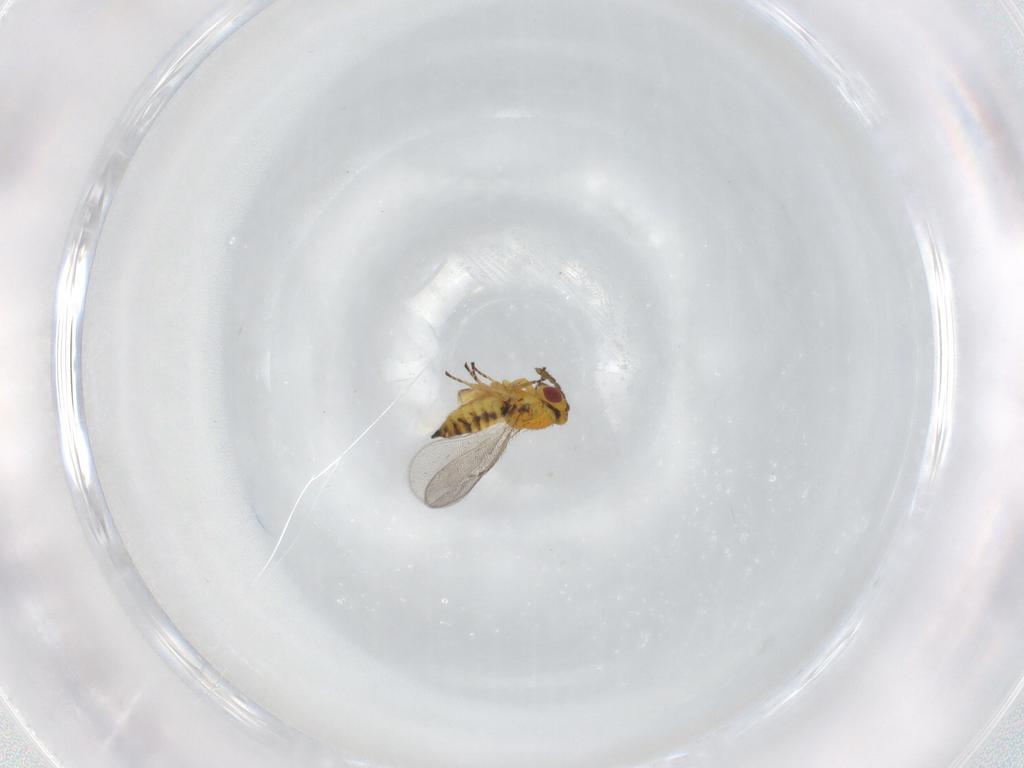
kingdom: Animalia
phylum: Arthropoda
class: Insecta
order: Hymenoptera
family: Eulophidae
